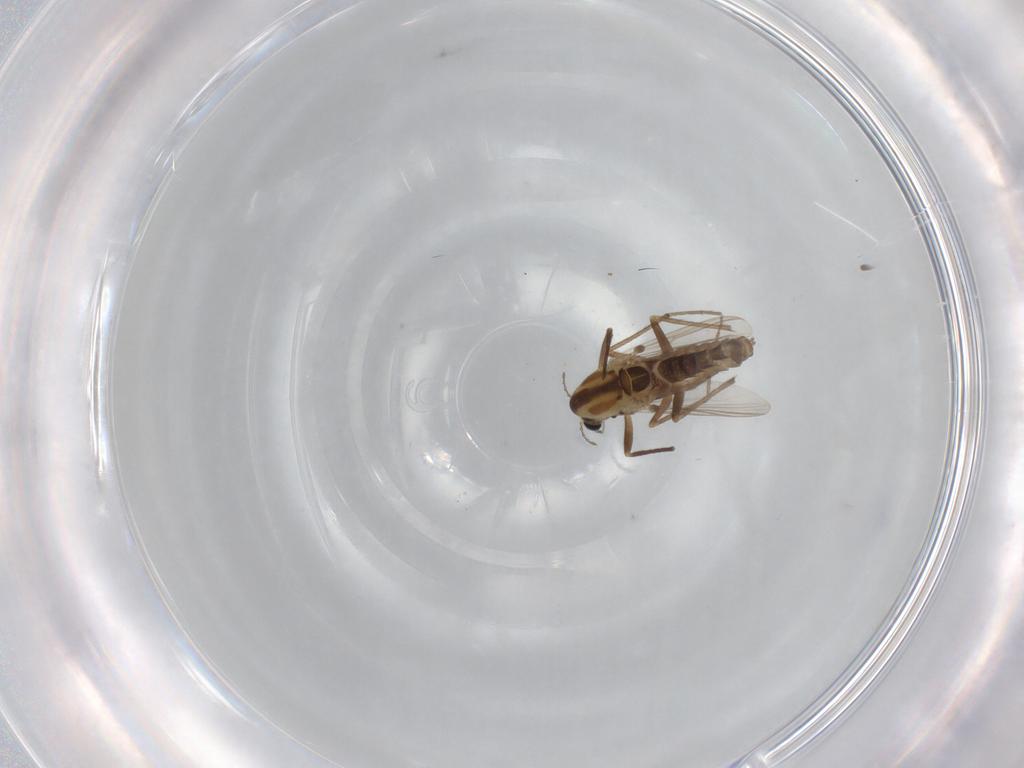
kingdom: Animalia
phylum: Arthropoda
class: Insecta
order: Diptera
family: Chironomidae
